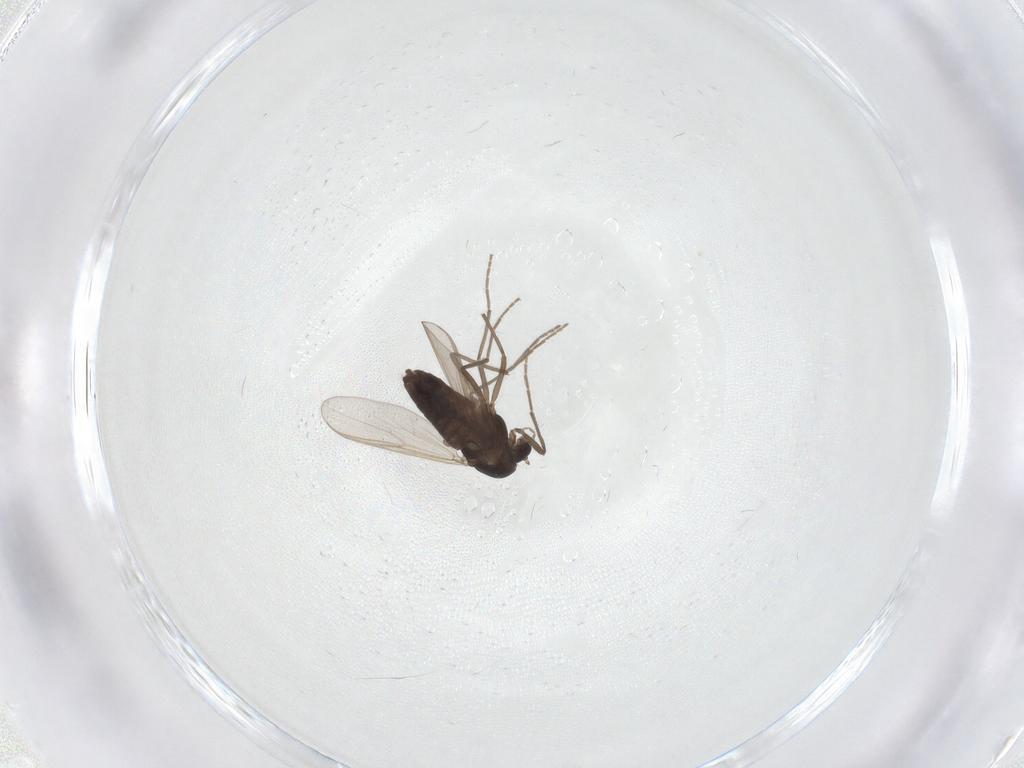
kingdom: Animalia
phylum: Arthropoda
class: Insecta
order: Diptera
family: Chironomidae
